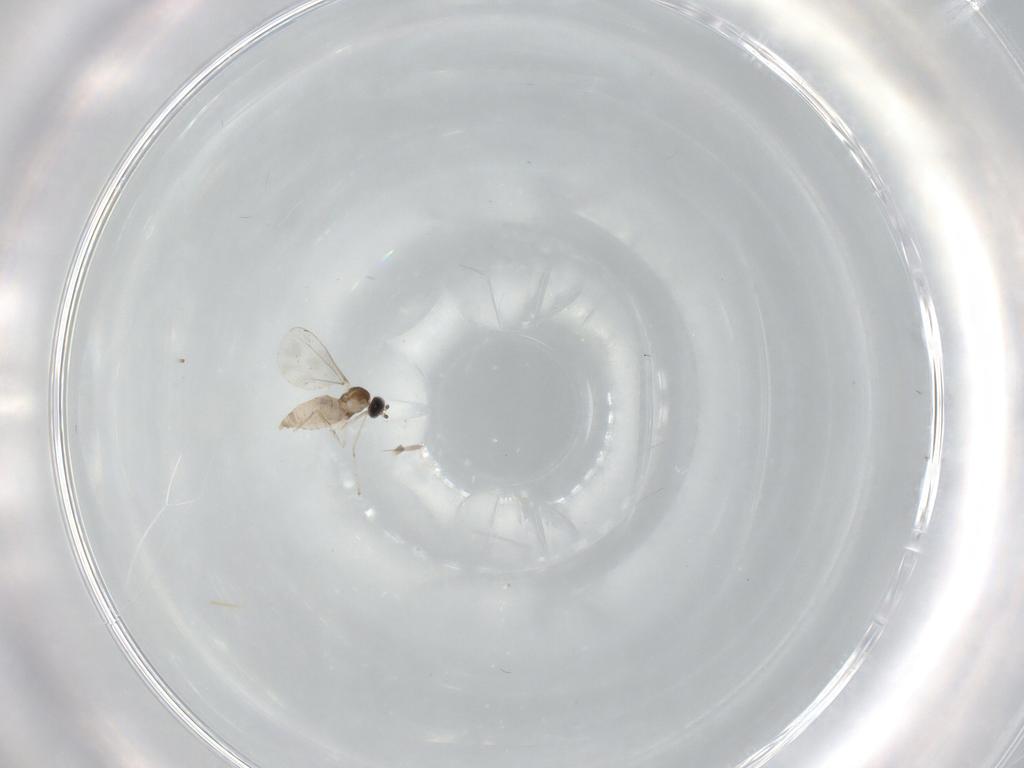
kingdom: Animalia
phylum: Arthropoda
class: Insecta
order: Diptera
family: Cecidomyiidae
